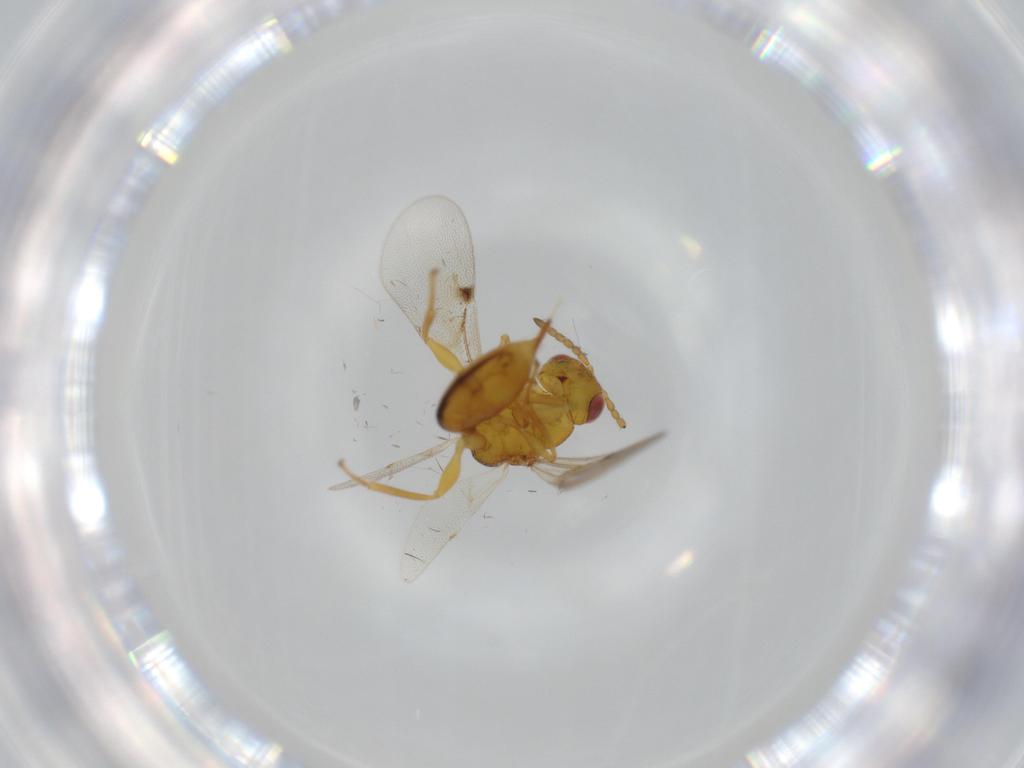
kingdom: Animalia
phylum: Arthropoda
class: Insecta
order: Hymenoptera
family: Eurytomidae
